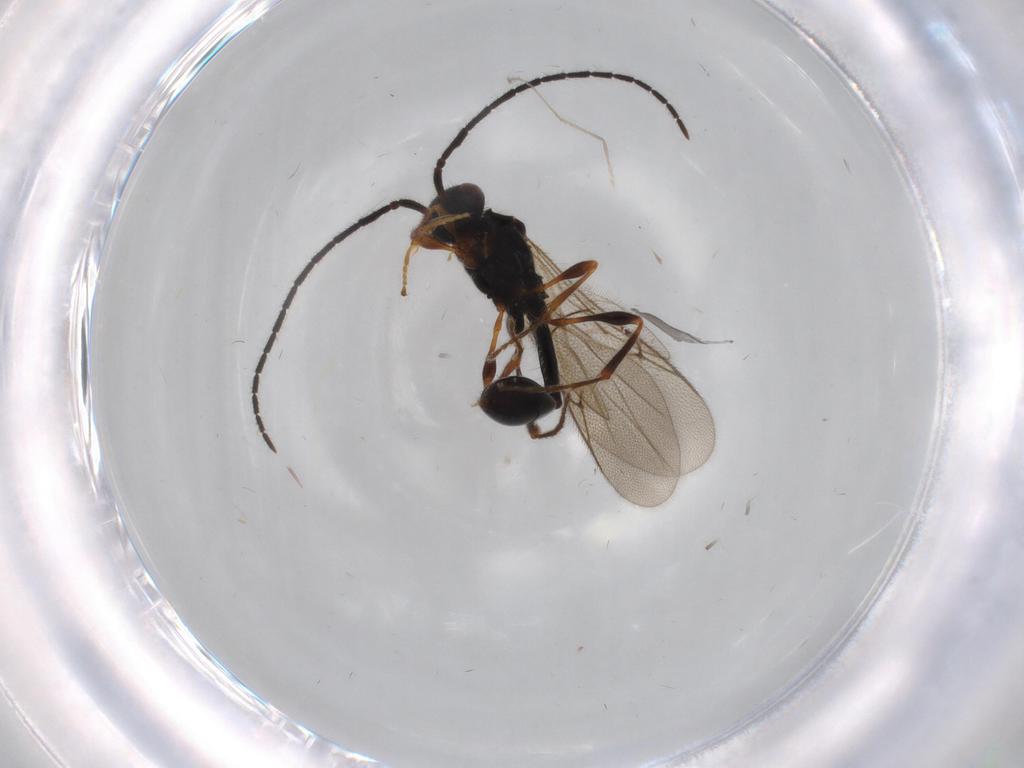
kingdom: Animalia
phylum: Arthropoda
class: Insecta
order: Hymenoptera
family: Diapriidae
